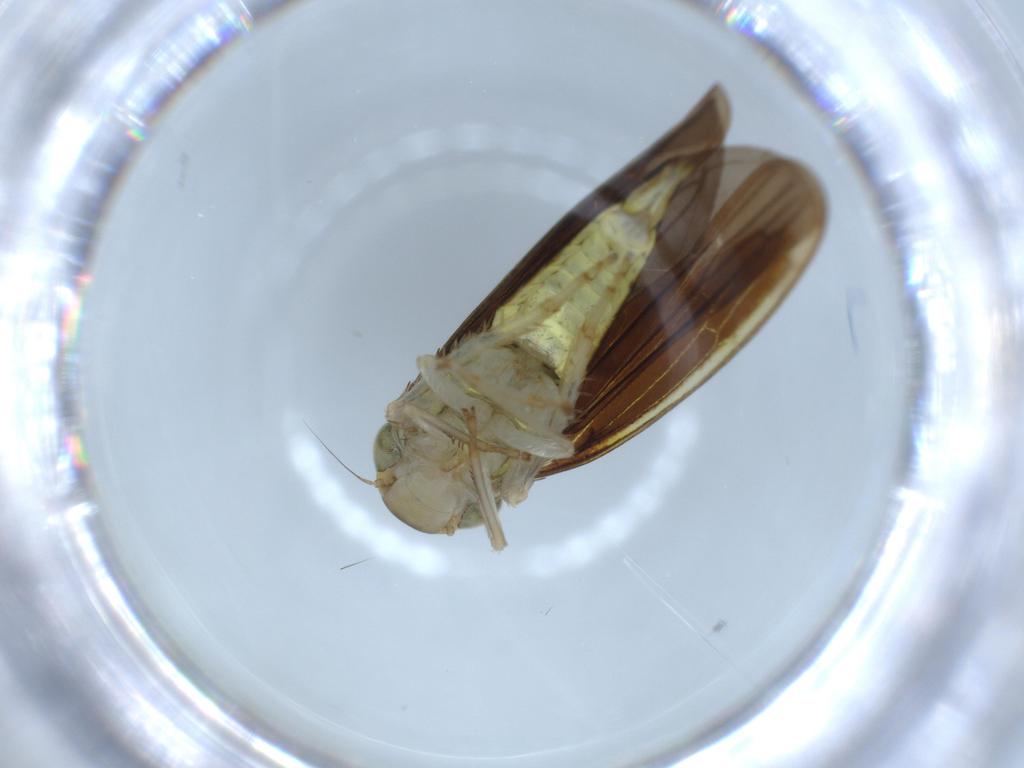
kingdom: Animalia
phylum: Arthropoda
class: Insecta
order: Hemiptera
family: Cicadellidae
